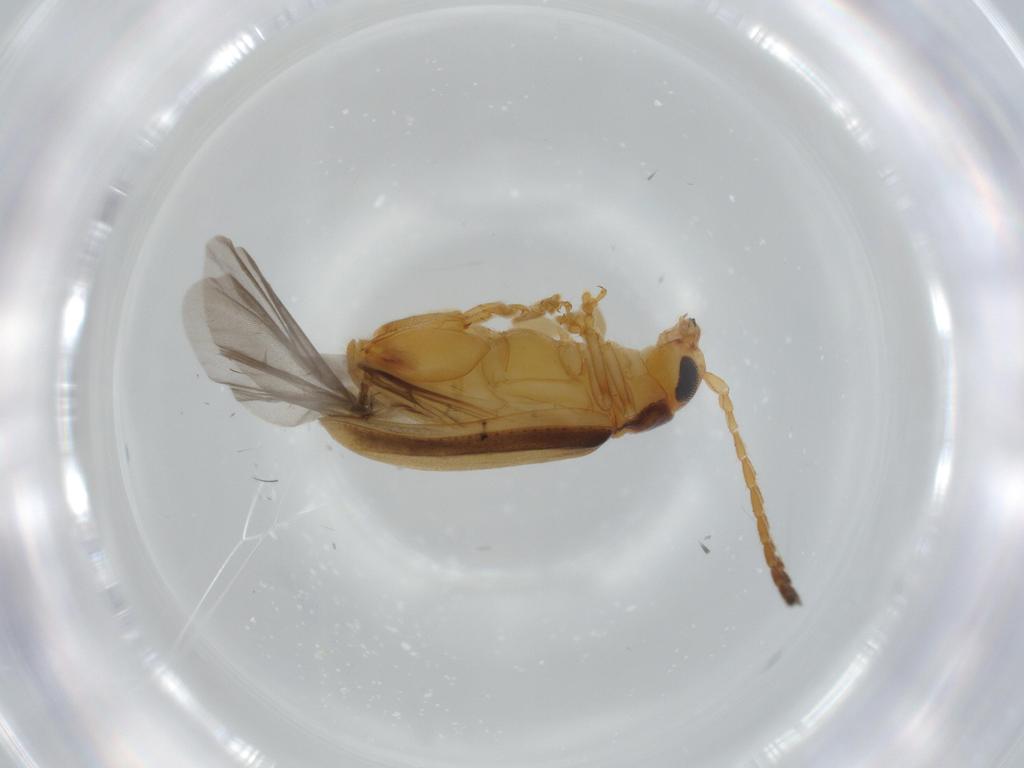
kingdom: Animalia
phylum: Arthropoda
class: Insecta
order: Coleoptera
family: Chrysomelidae
